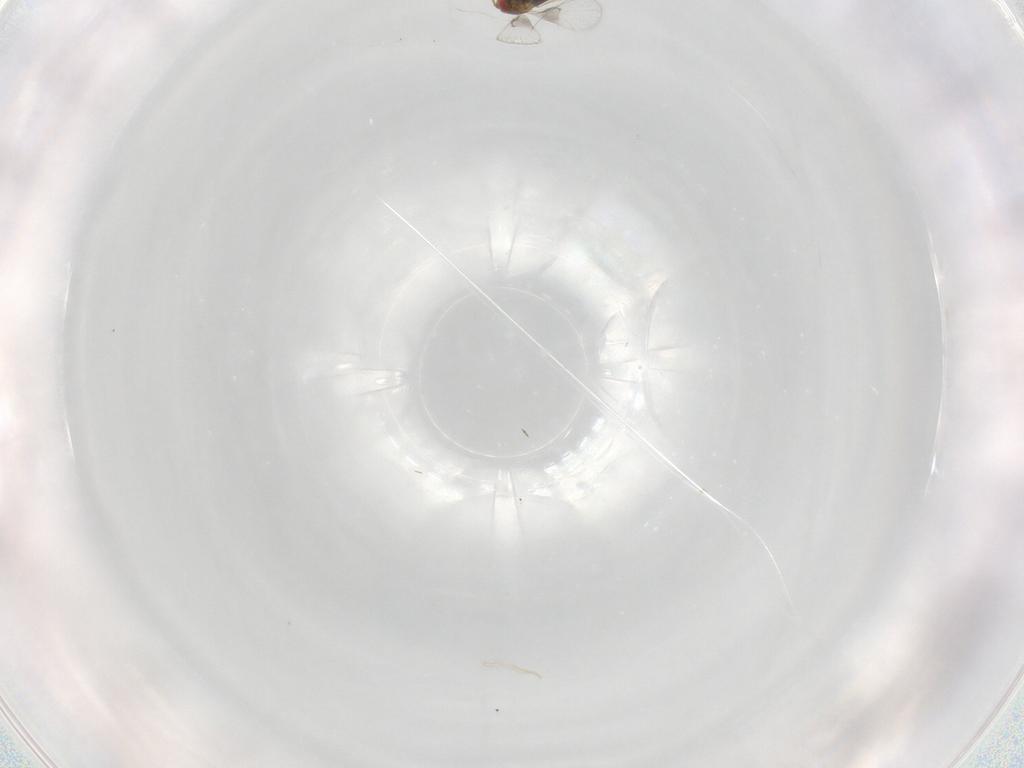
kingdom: Animalia
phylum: Arthropoda
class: Insecta
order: Hymenoptera
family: Trichogrammatidae
